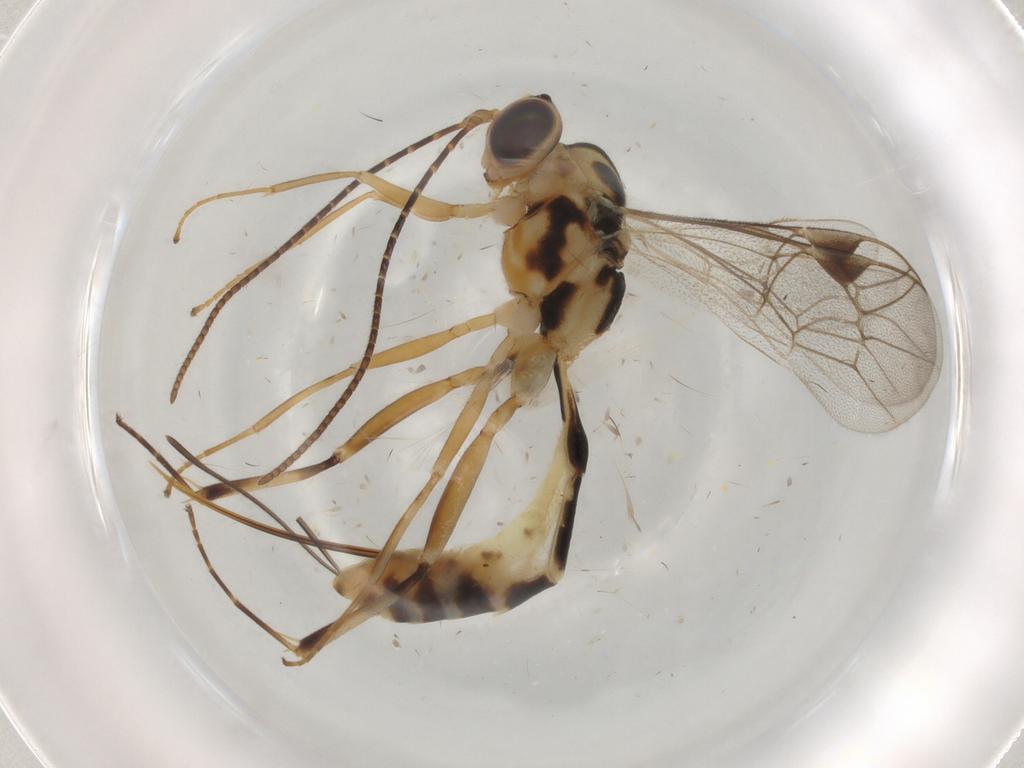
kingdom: Animalia
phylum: Arthropoda
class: Insecta
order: Hymenoptera
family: Ichneumonidae
